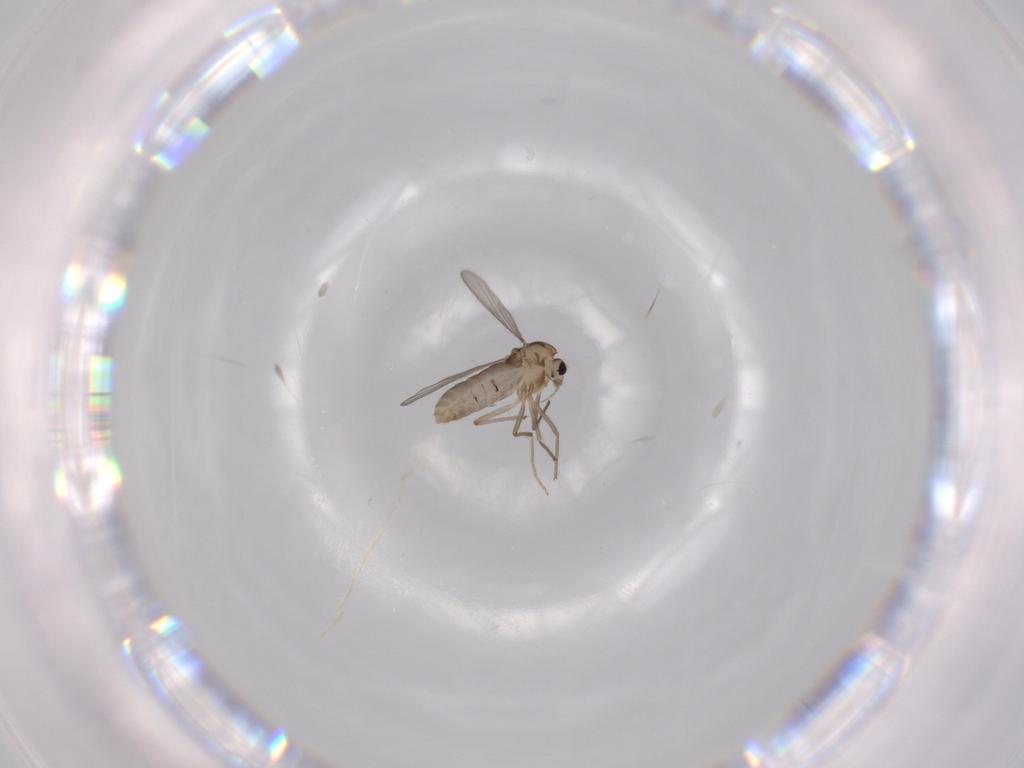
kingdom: Animalia
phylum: Arthropoda
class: Insecta
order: Diptera
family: Chironomidae
